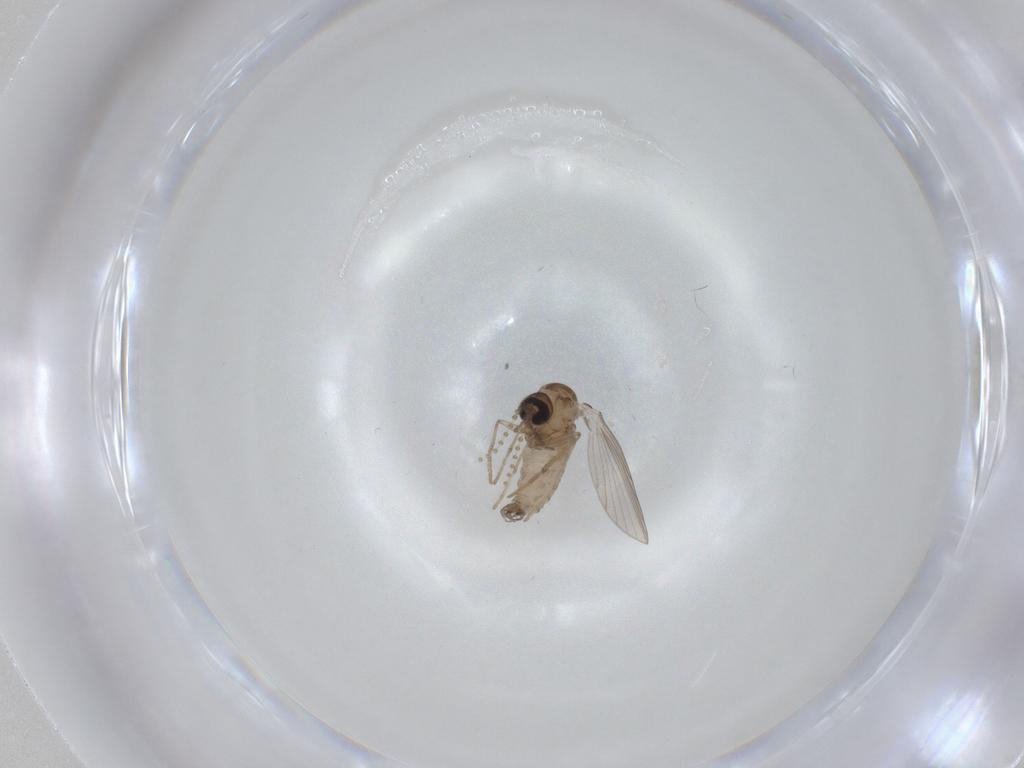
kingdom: Animalia
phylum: Arthropoda
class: Insecta
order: Diptera
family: Psychodidae
